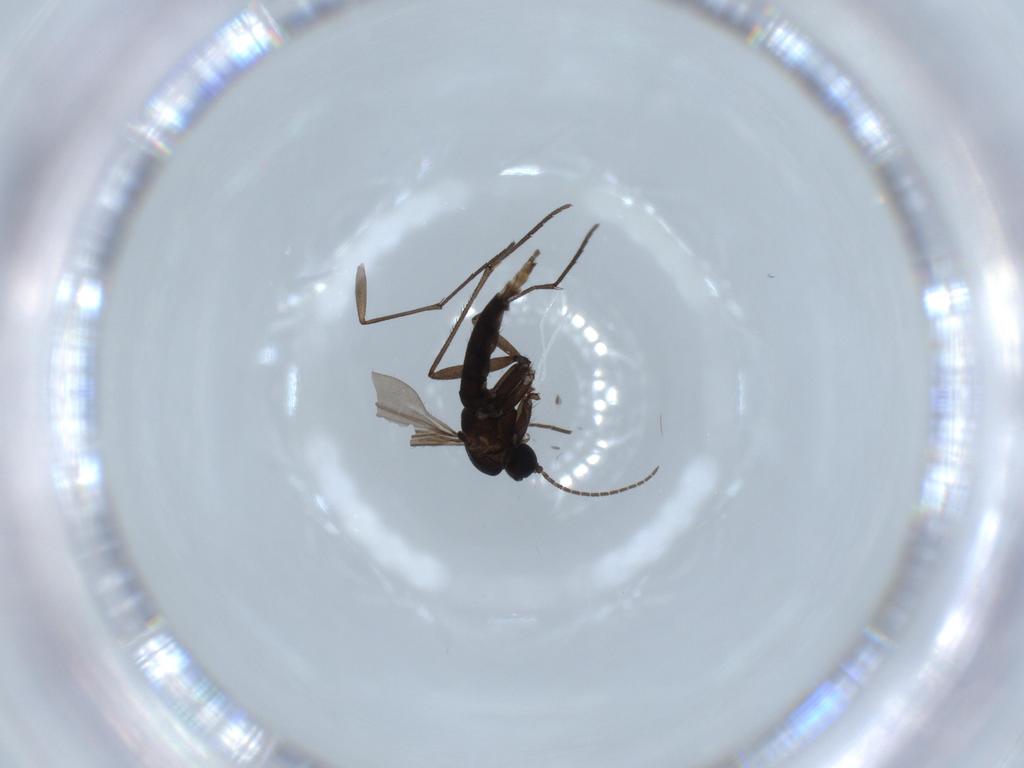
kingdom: Animalia
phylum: Arthropoda
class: Insecta
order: Diptera
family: Sciaridae
